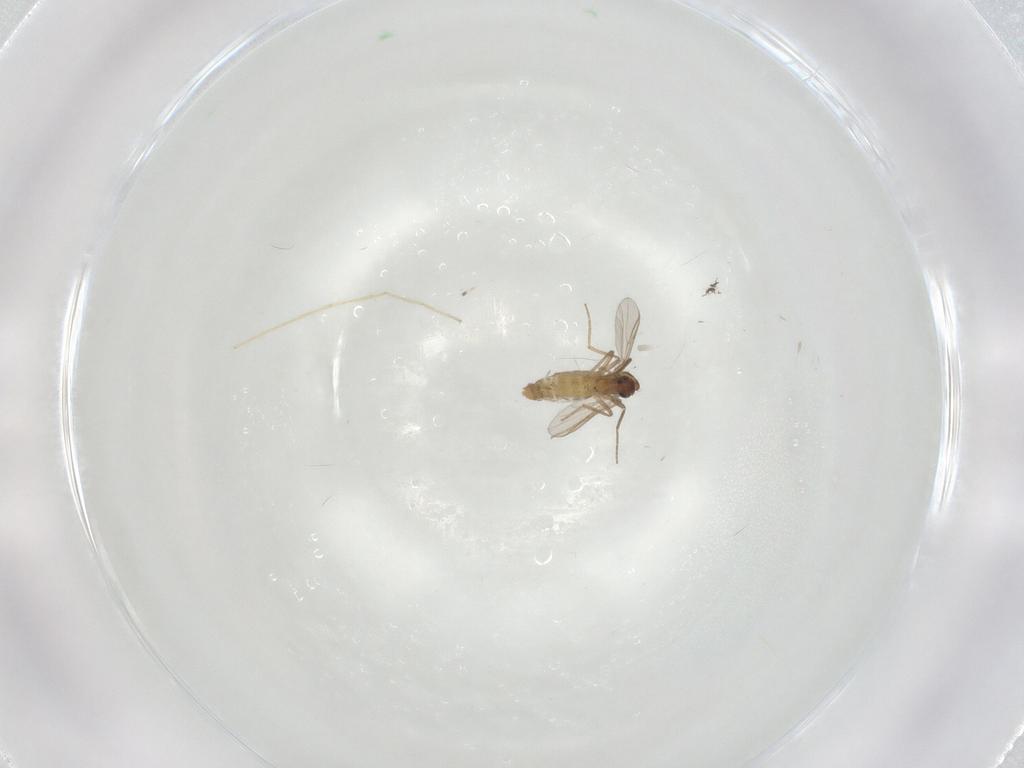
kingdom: Animalia
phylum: Arthropoda
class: Insecta
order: Diptera
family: Chironomidae
